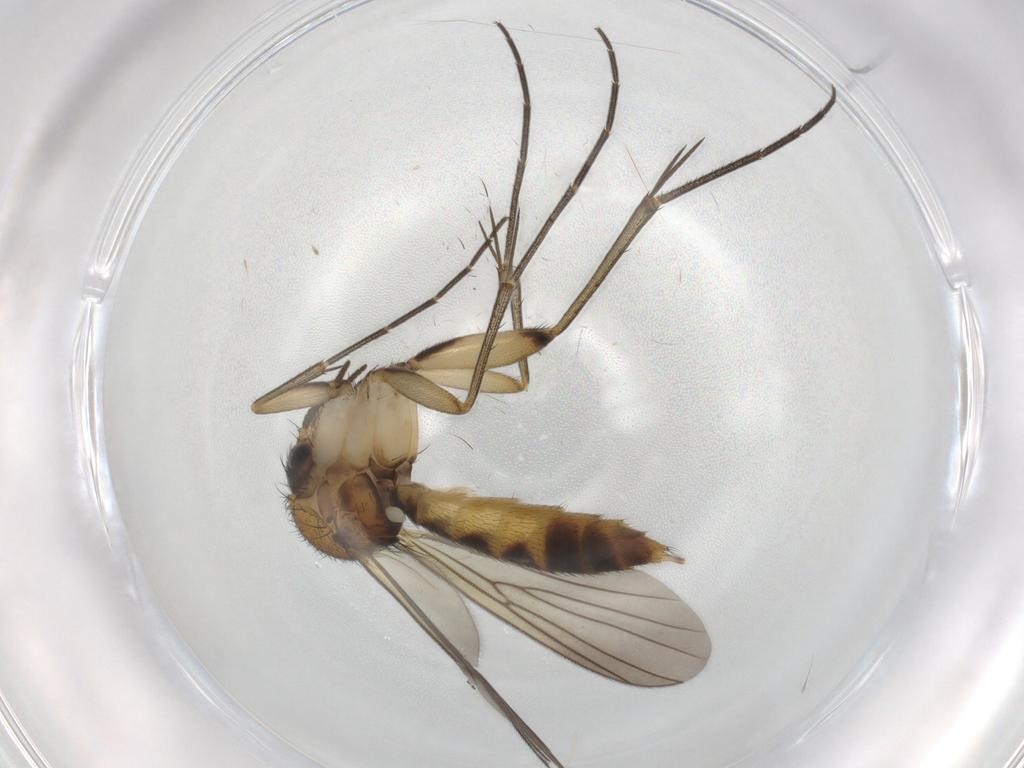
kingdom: Animalia
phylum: Arthropoda
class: Insecta
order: Diptera
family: Mycetophilidae
